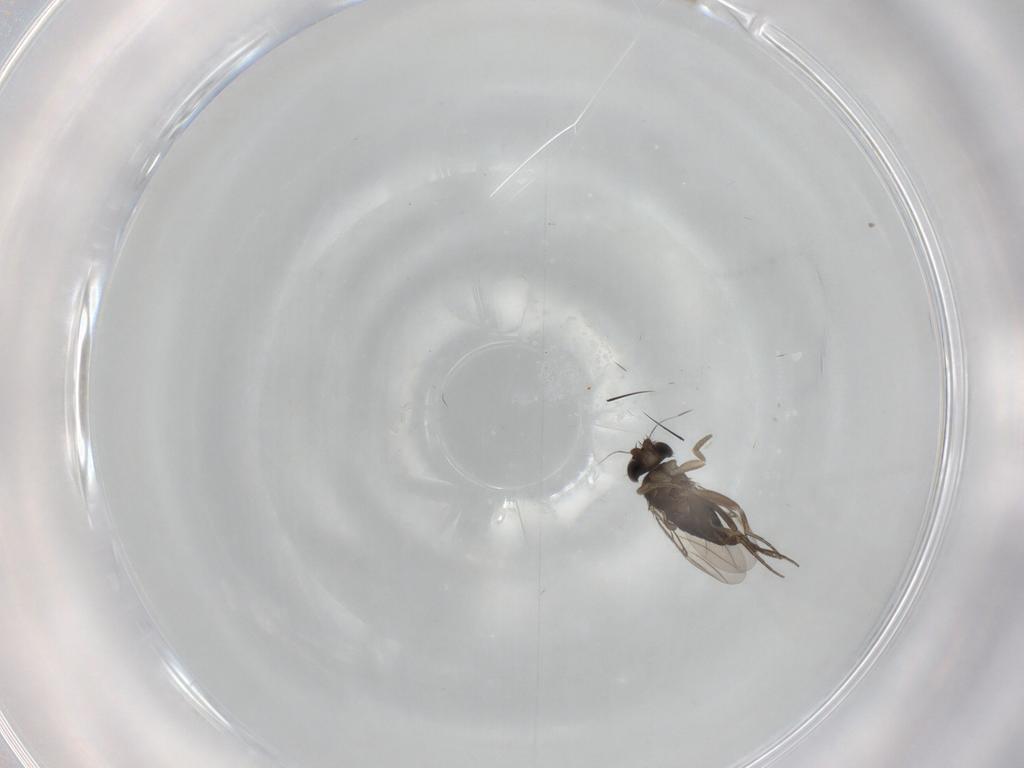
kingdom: Animalia
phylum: Arthropoda
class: Insecta
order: Diptera
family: Phoridae
